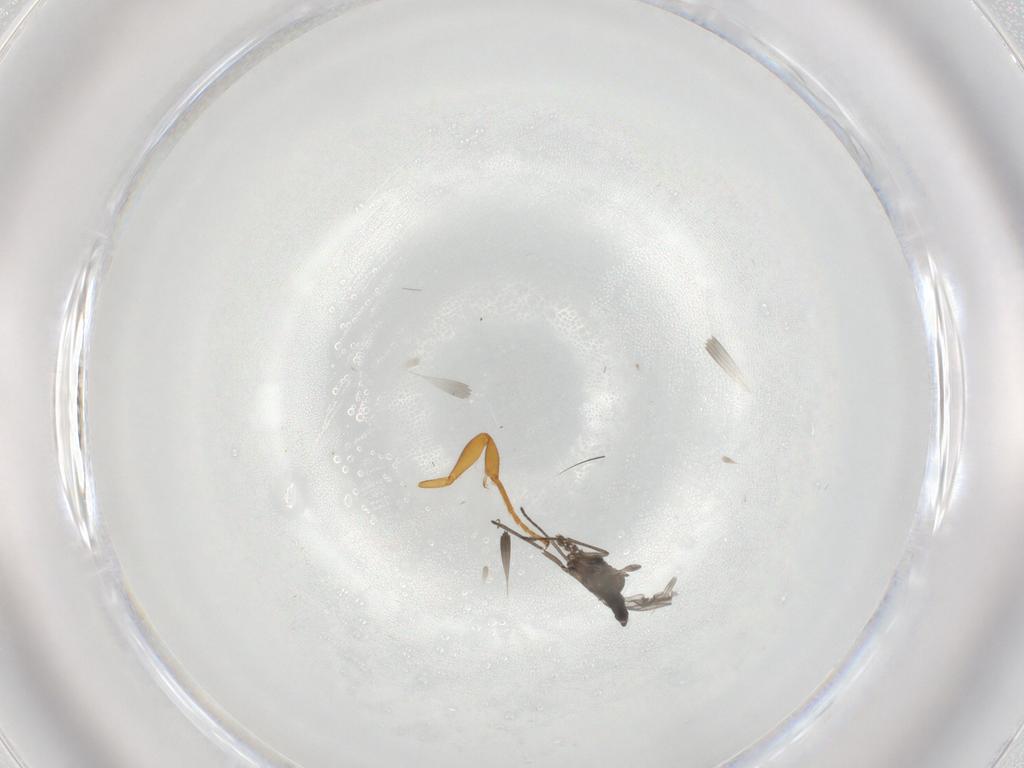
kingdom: Animalia
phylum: Arthropoda
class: Insecta
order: Diptera
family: Ceratopogonidae
